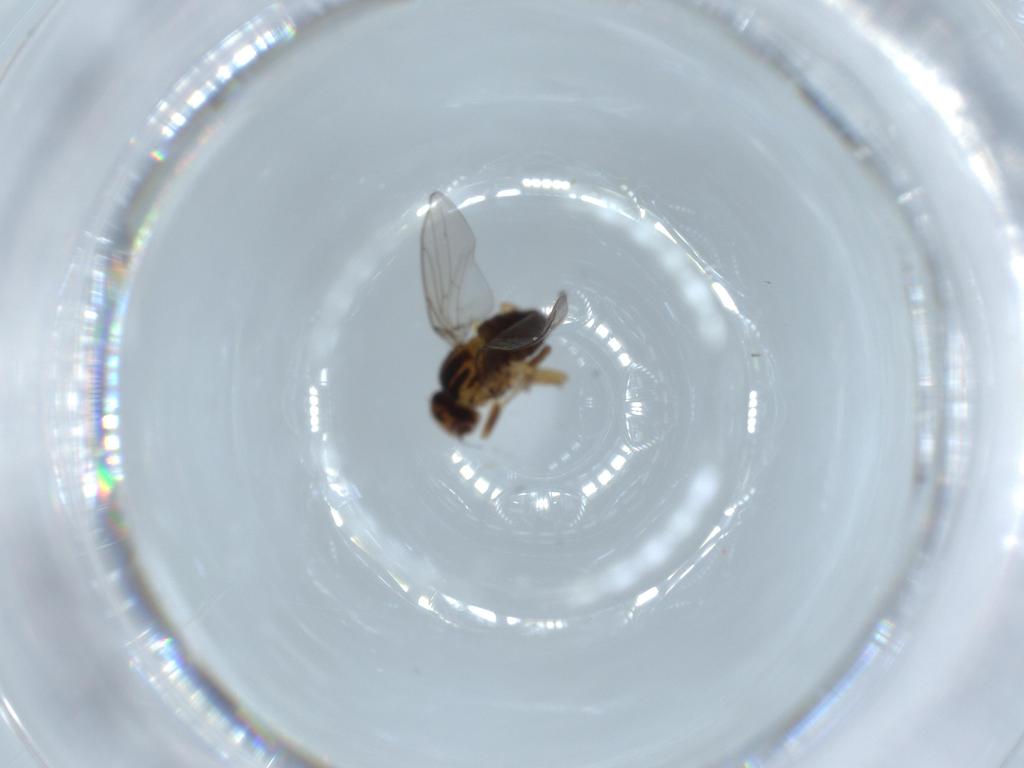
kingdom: Animalia
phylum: Arthropoda
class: Insecta
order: Diptera
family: Chloropidae
